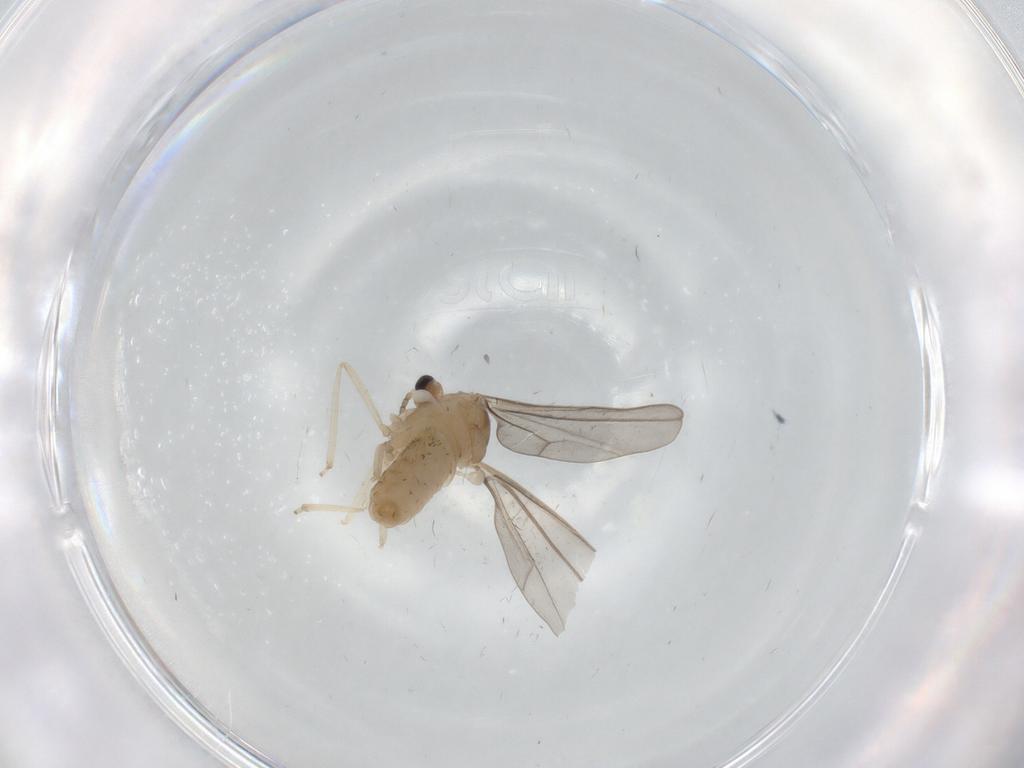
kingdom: Animalia
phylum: Arthropoda
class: Insecta
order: Diptera
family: Cecidomyiidae
